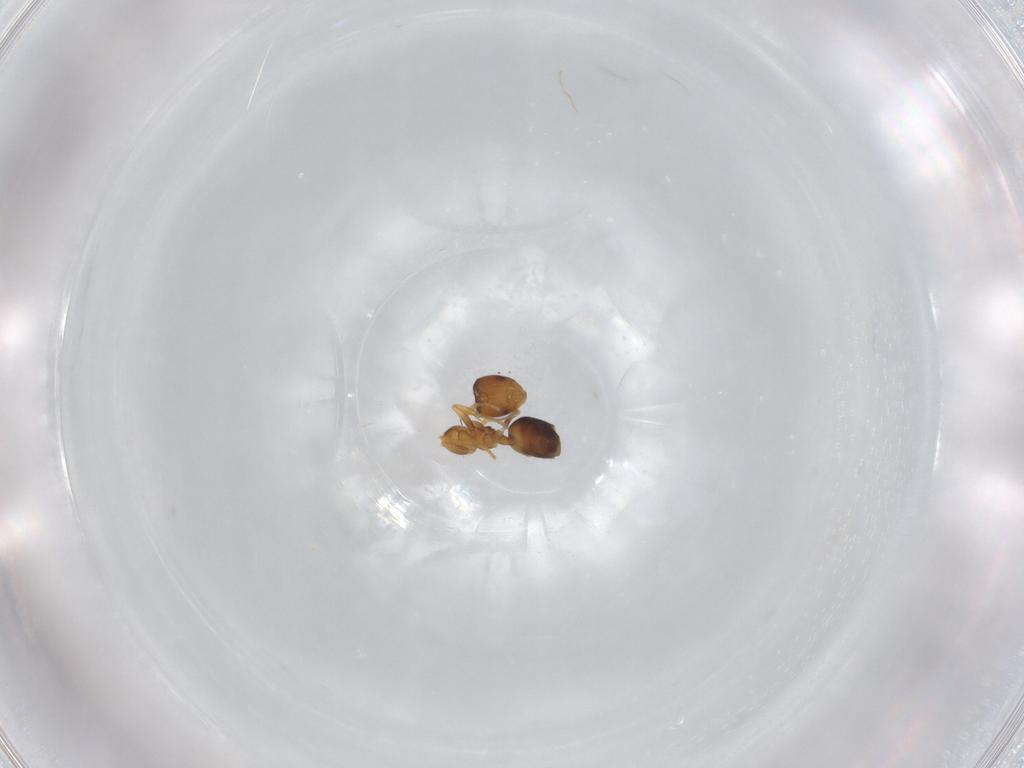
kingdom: Animalia
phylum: Arthropoda
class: Insecta
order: Hymenoptera
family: Formicidae
